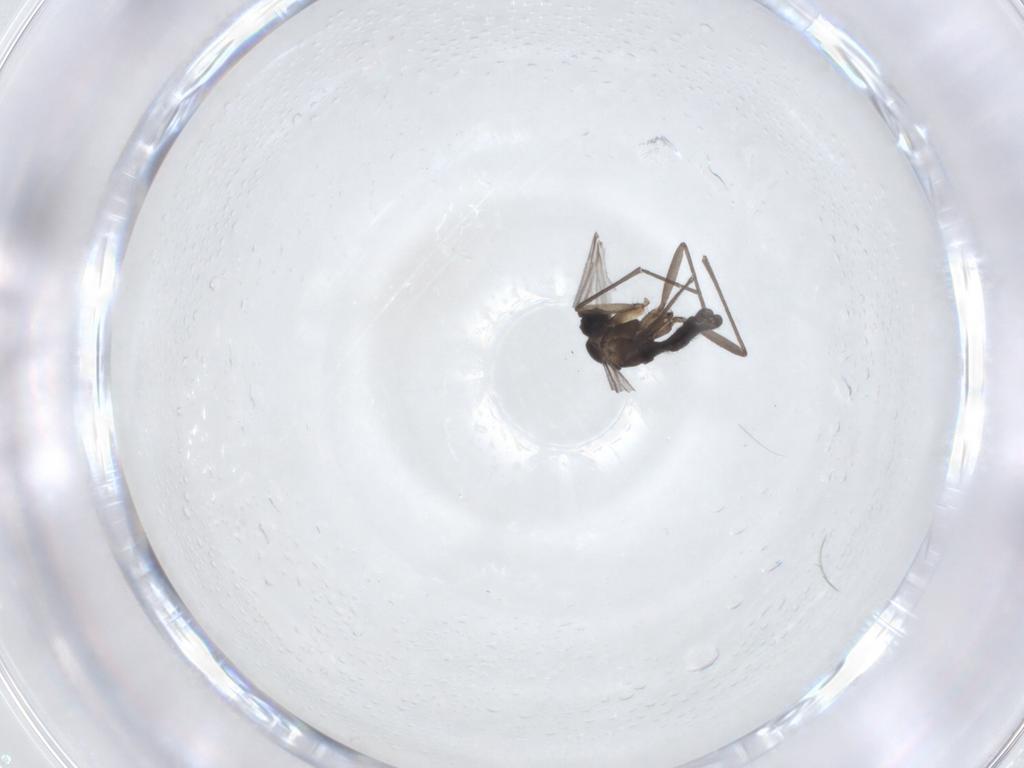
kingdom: Animalia
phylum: Arthropoda
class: Insecta
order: Diptera
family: Sciaridae
